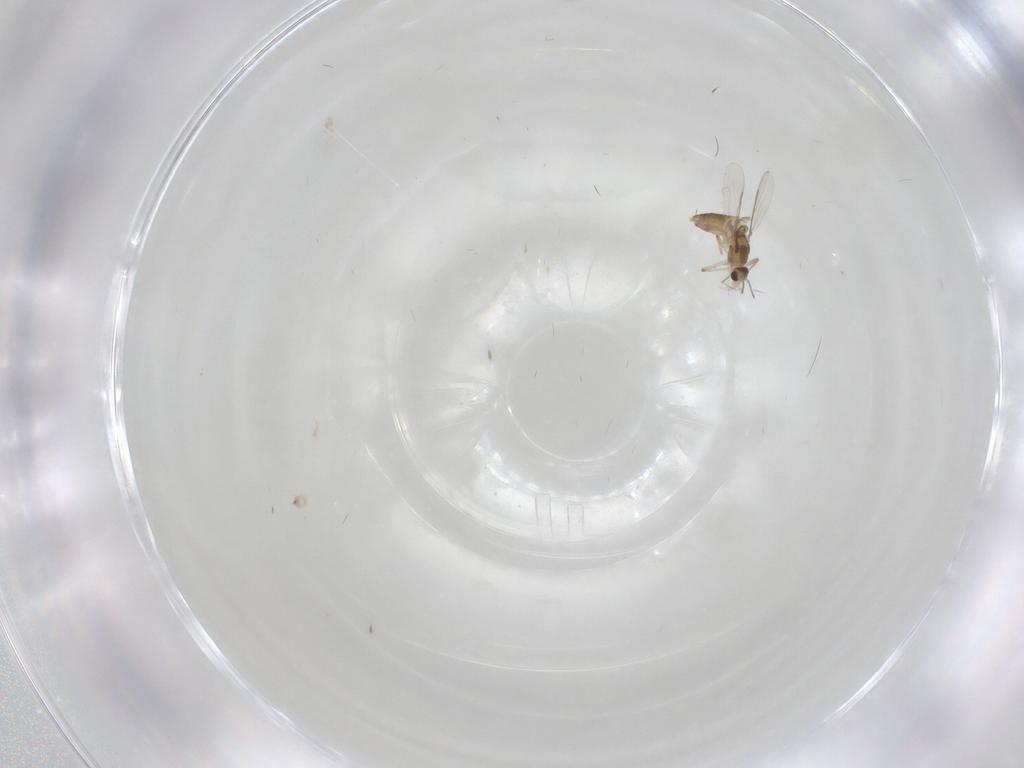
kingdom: Animalia
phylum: Arthropoda
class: Insecta
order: Diptera
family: Chironomidae
